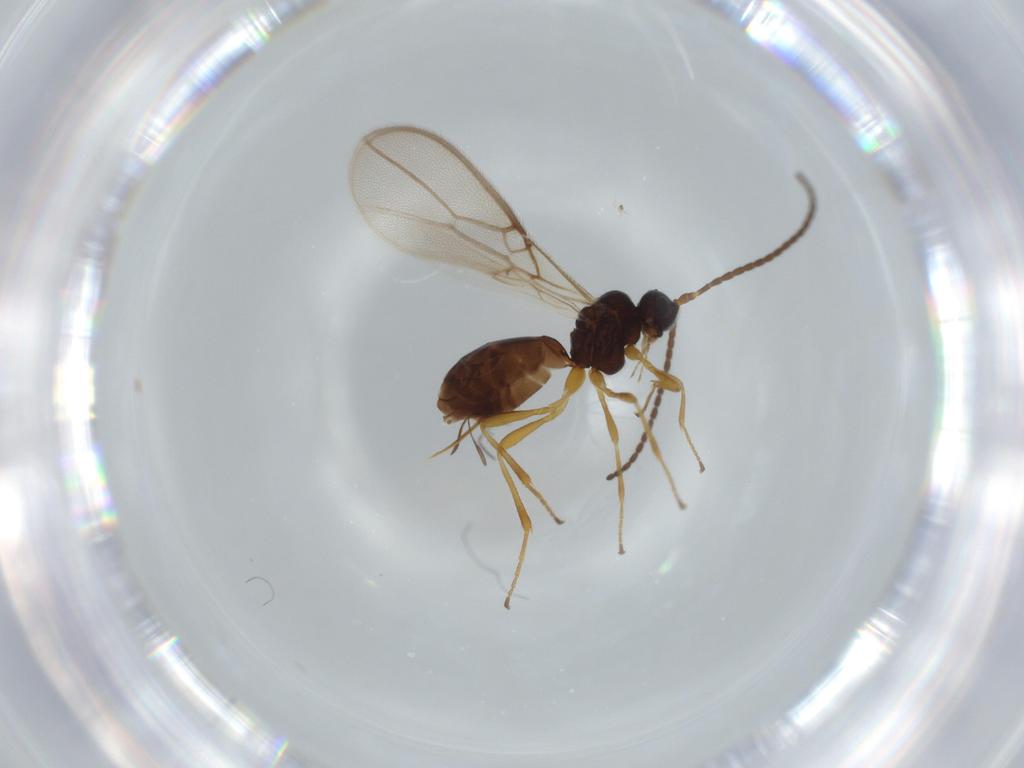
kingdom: Animalia
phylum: Arthropoda
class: Insecta
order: Hymenoptera
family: Braconidae
